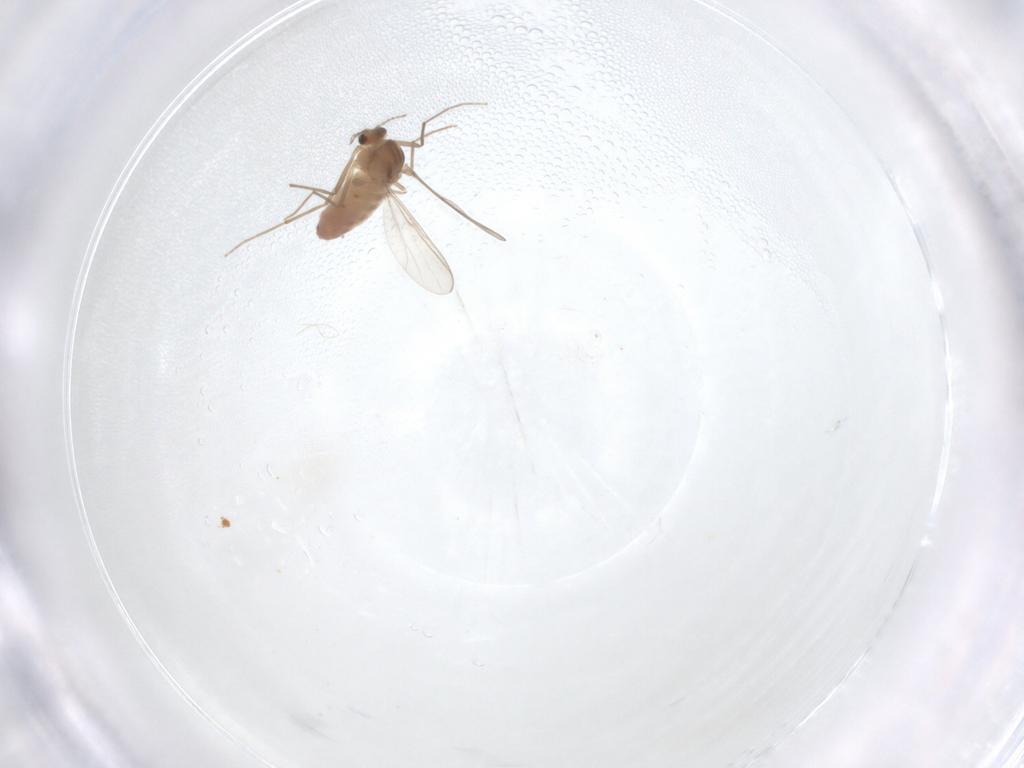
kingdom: Animalia
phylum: Arthropoda
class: Insecta
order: Diptera
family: Chironomidae
